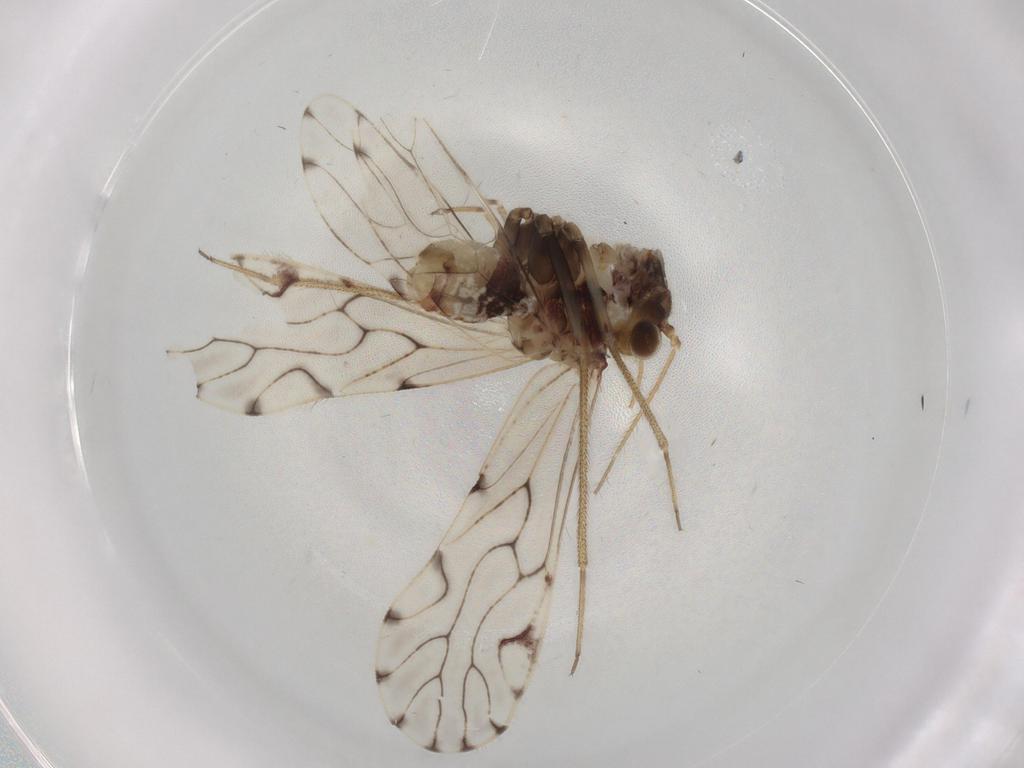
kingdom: Animalia
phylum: Arthropoda
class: Insecta
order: Psocodea
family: Epipsocidae
